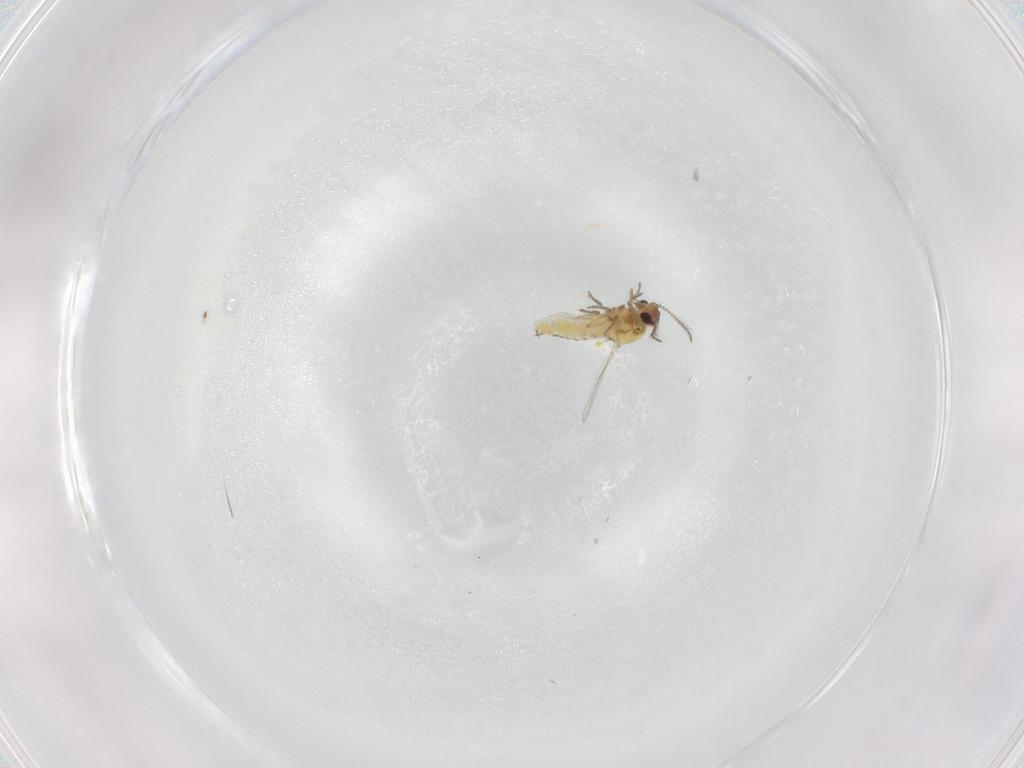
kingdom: Animalia
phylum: Arthropoda
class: Insecta
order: Diptera
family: Ceratopogonidae
